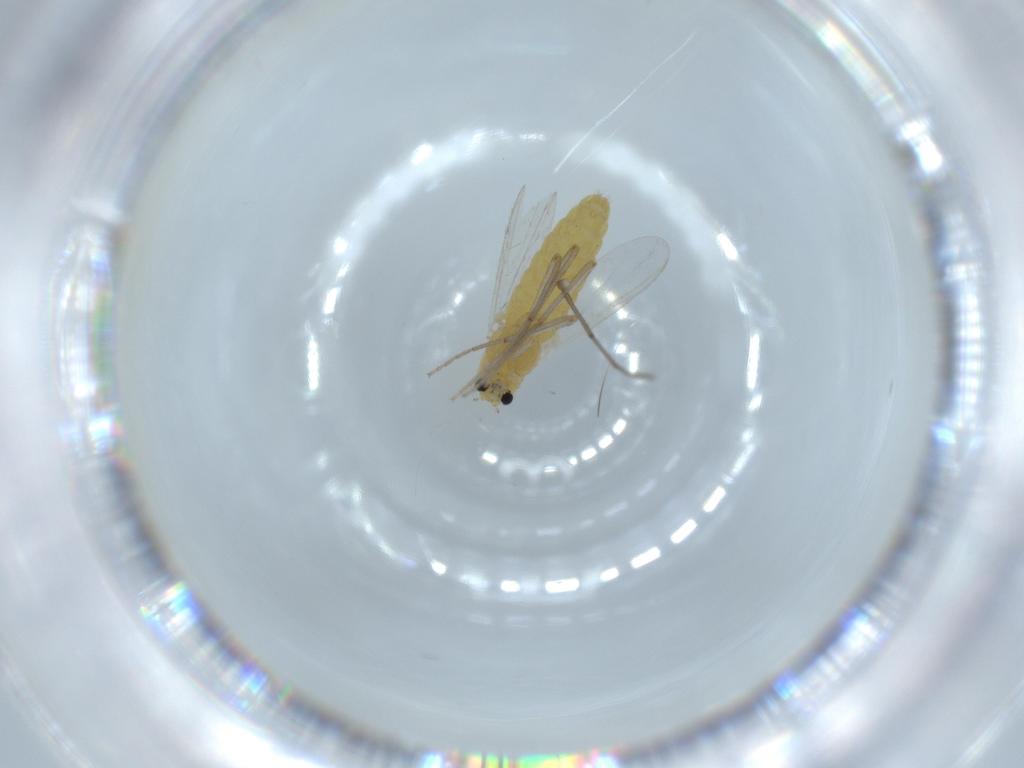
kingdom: Animalia
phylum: Arthropoda
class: Insecta
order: Diptera
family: Chironomidae
